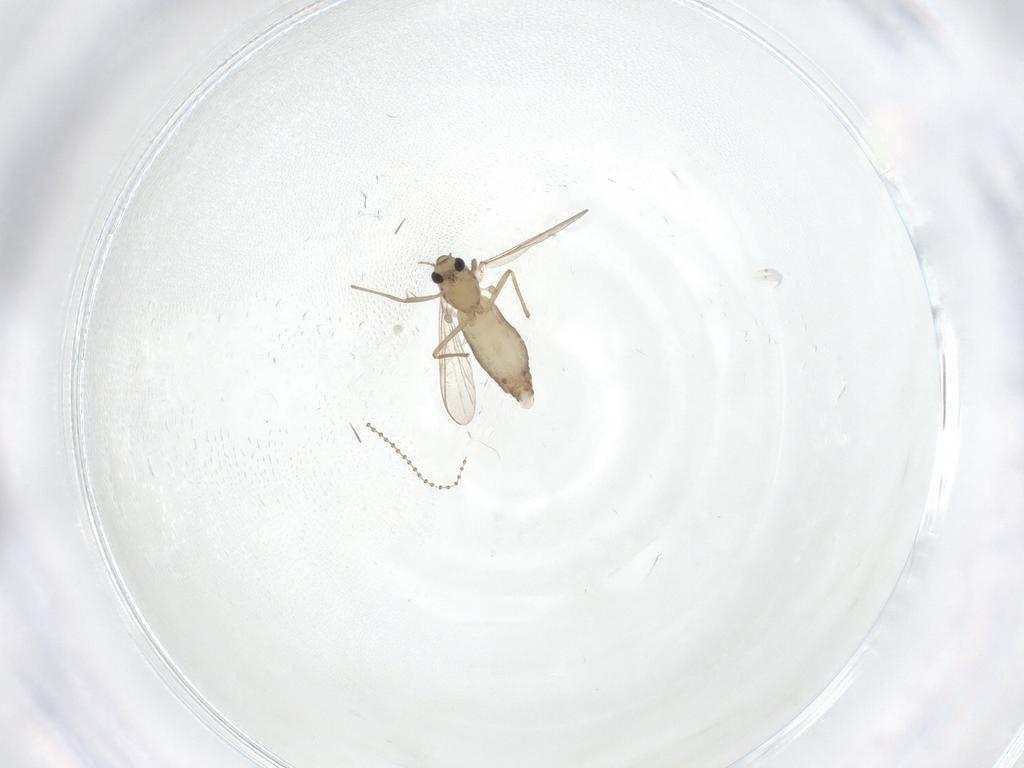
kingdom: Animalia
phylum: Arthropoda
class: Insecta
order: Diptera
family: Cecidomyiidae
